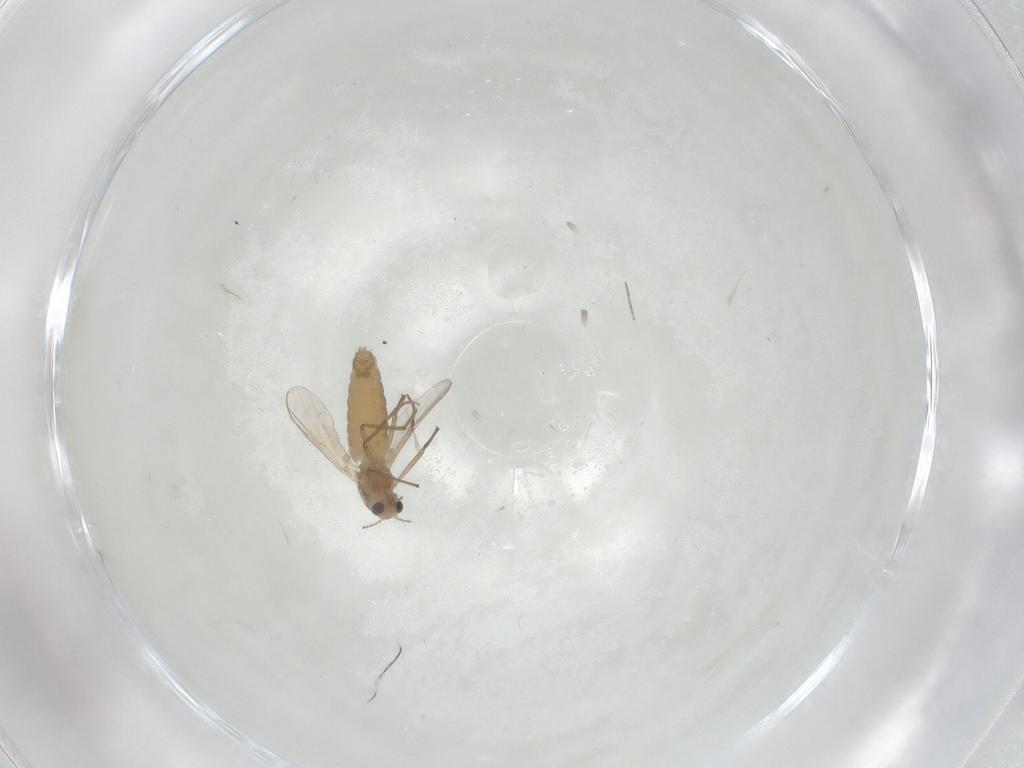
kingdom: Animalia
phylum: Arthropoda
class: Insecta
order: Diptera
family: Chironomidae
